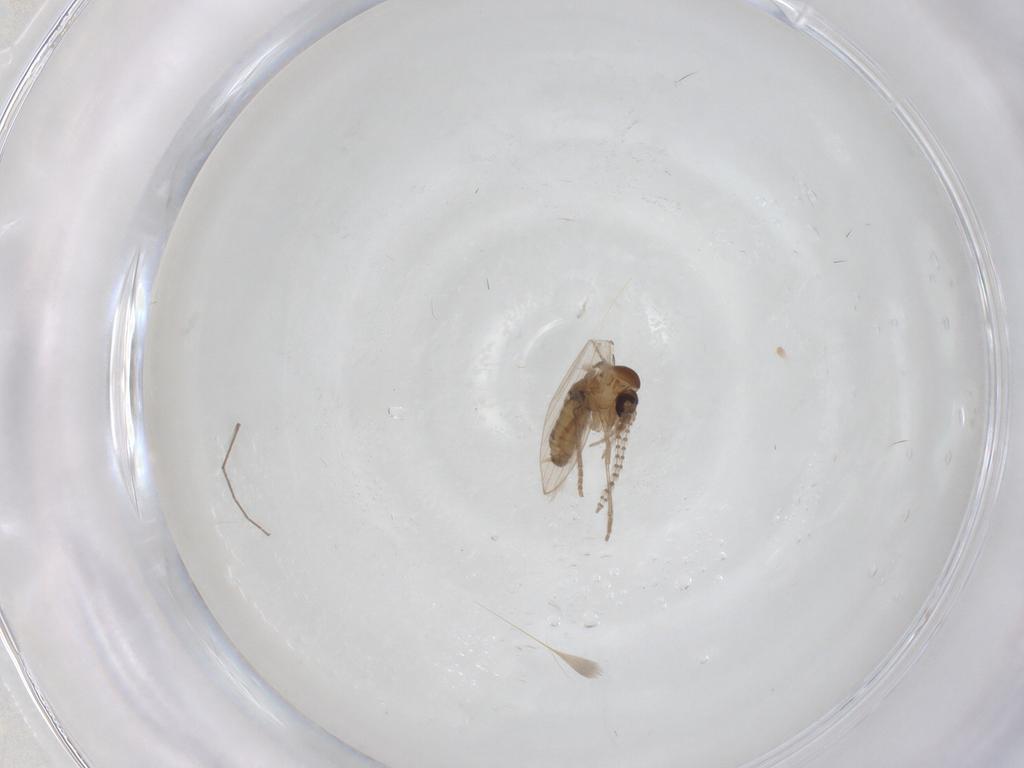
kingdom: Animalia
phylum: Arthropoda
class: Insecta
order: Diptera
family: Psychodidae
